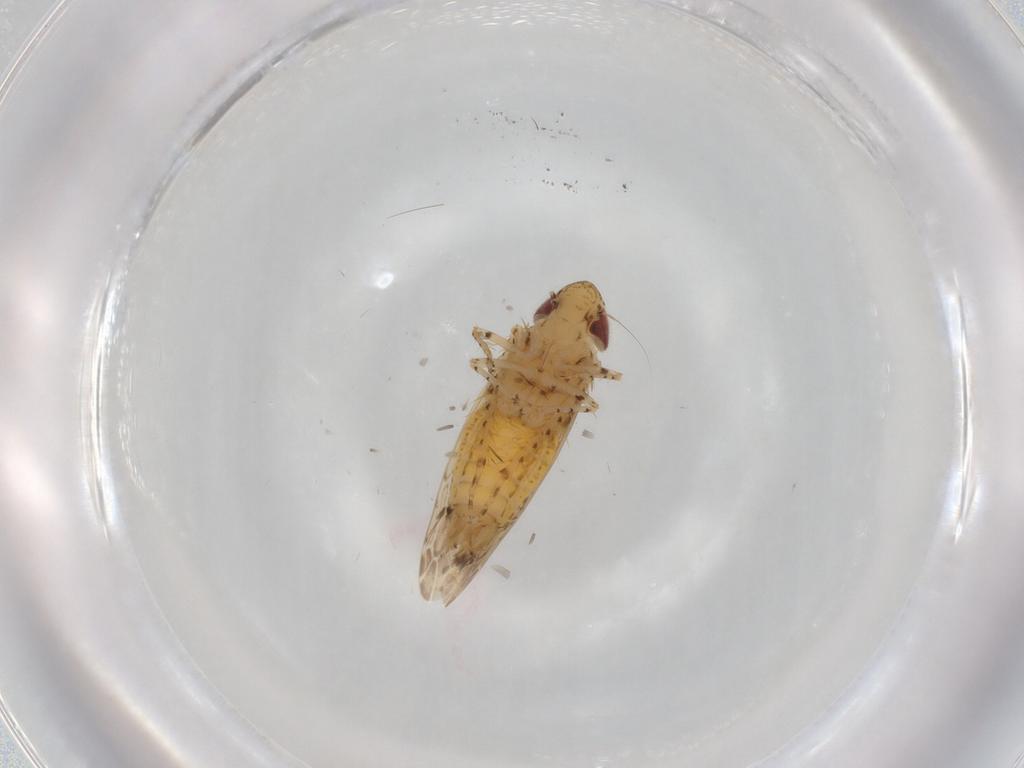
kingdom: Animalia
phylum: Arthropoda
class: Insecta
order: Hemiptera
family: Cicadellidae
